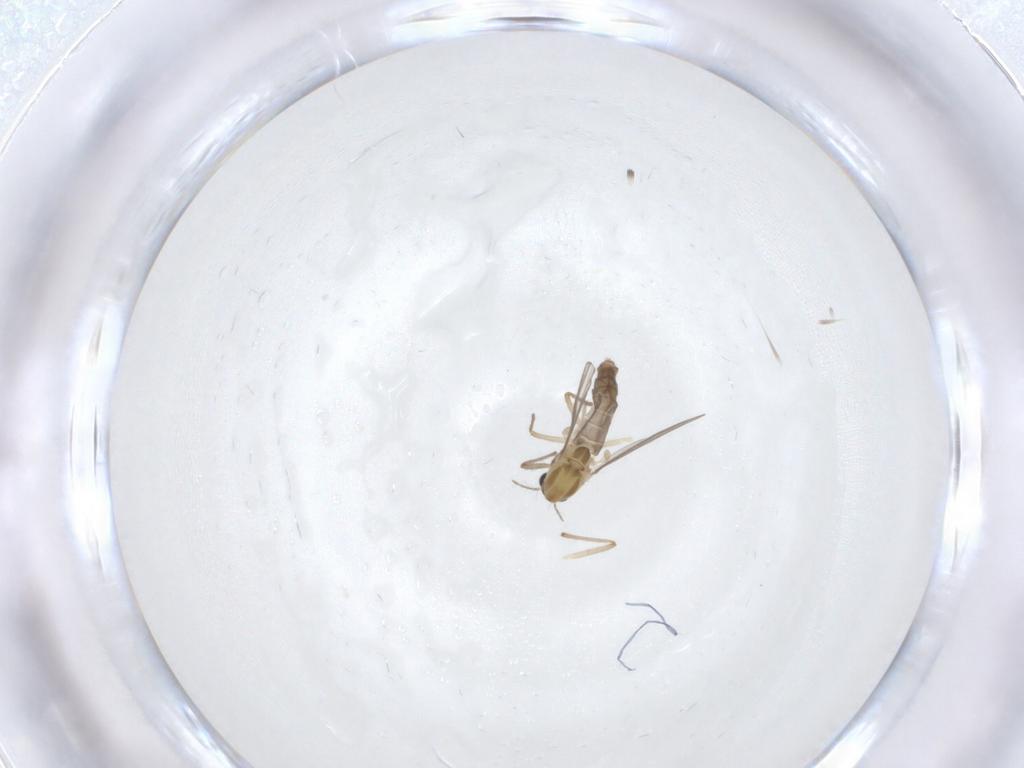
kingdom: Animalia
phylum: Arthropoda
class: Insecta
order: Diptera
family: Chironomidae
